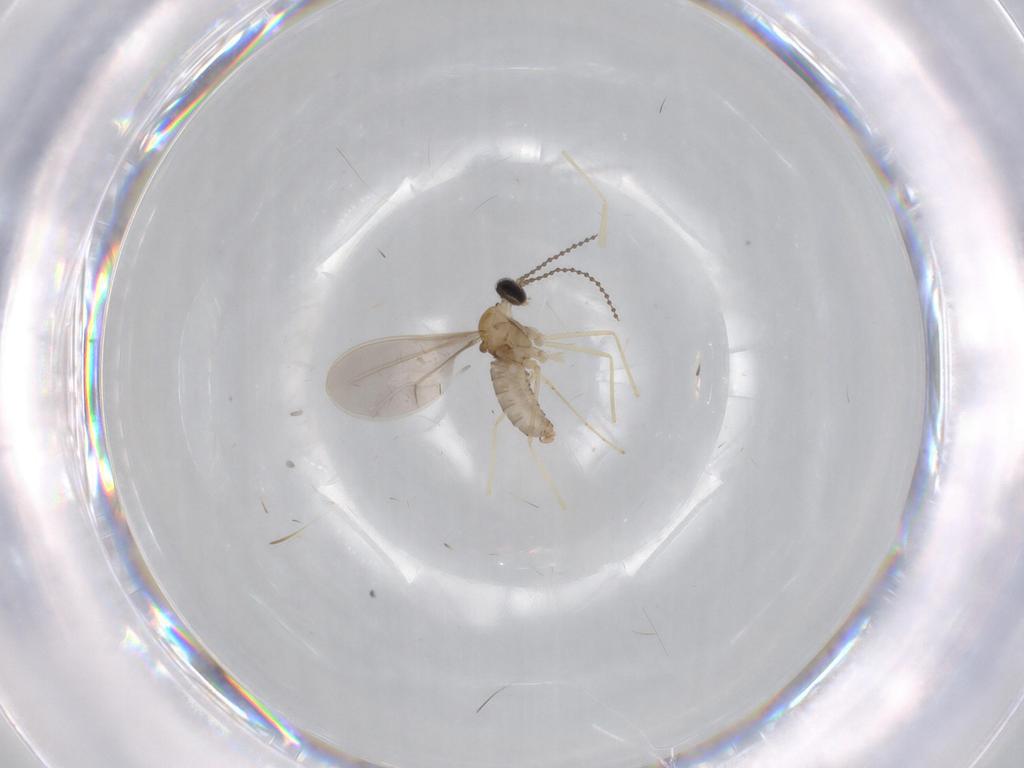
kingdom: Animalia
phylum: Arthropoda
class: Insecta
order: Diptera
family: Cecidomyiidae
